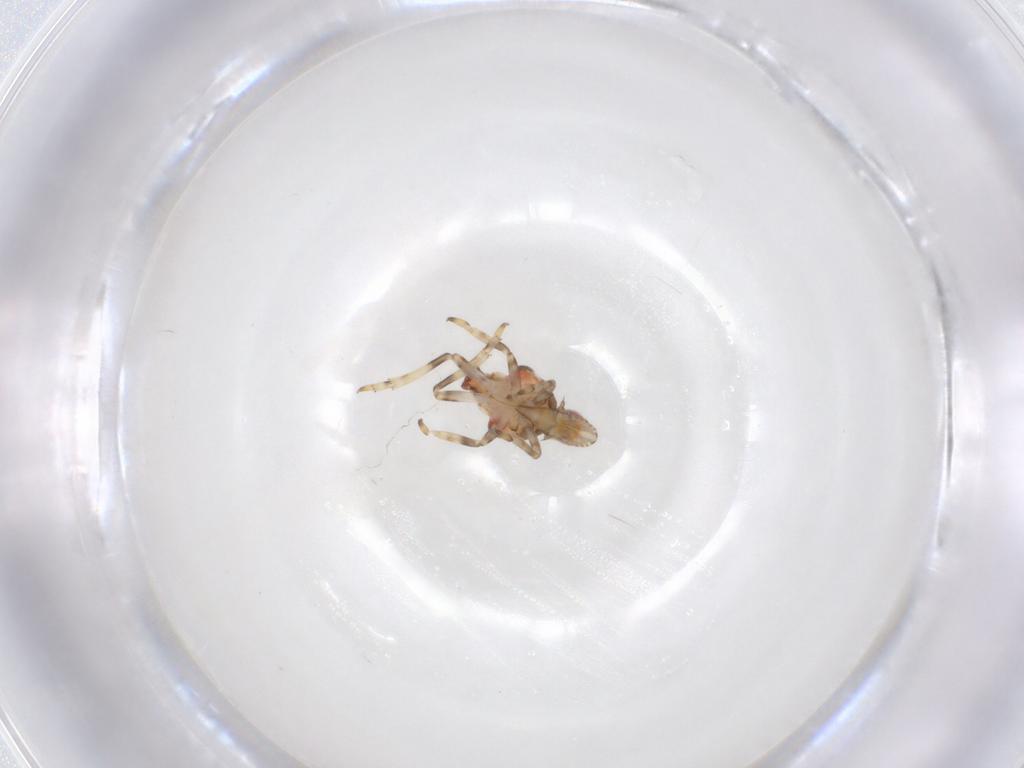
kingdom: Animalia
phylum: Arthropoda
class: Insecta
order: Hemiptera
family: Tropiduchidae
